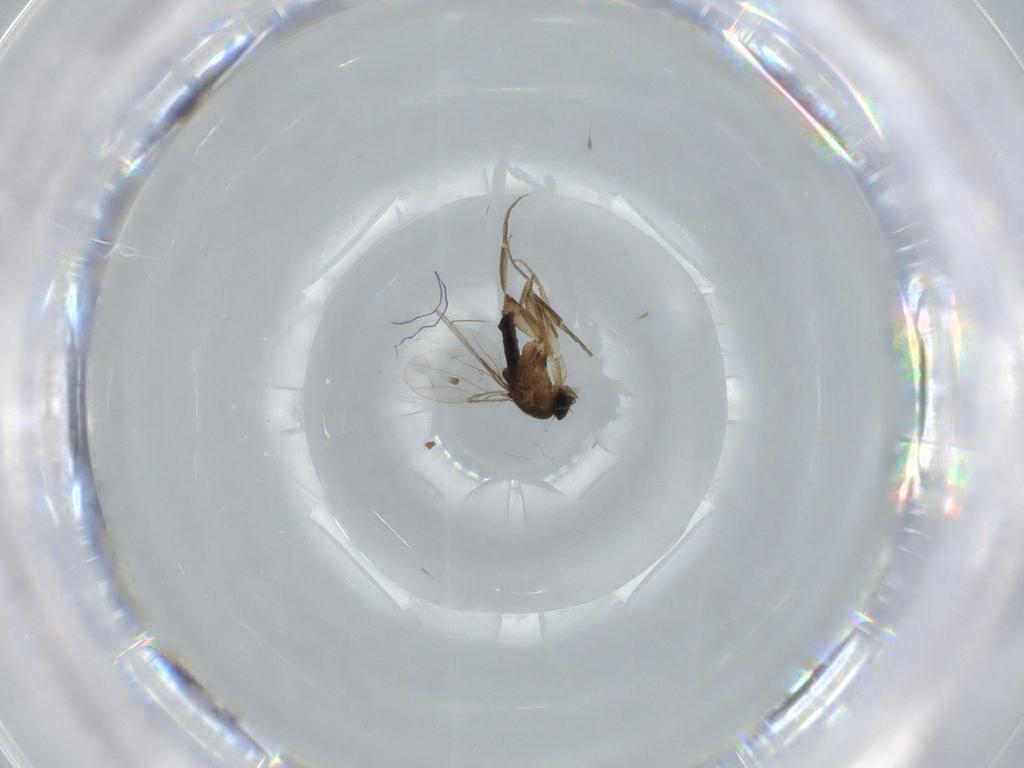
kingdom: Animalia
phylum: Arthropoda
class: Insecta
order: Diptera
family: Phoridae
